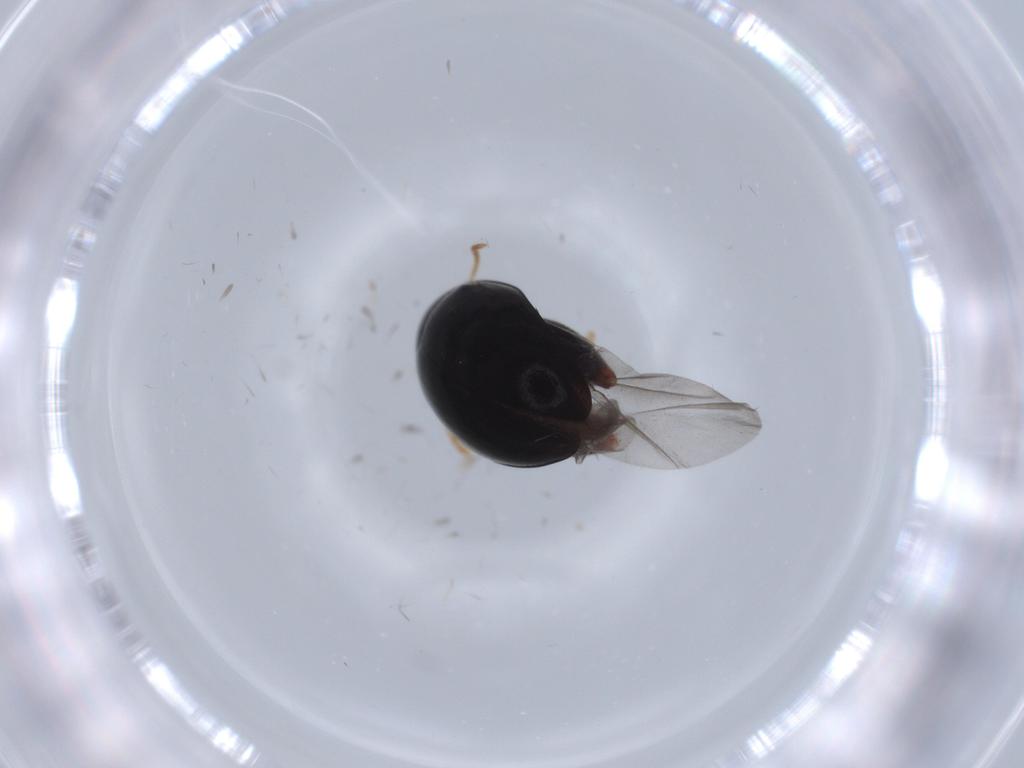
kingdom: Animalia
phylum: Arthropoda
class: Insecta
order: Coleoptera
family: Chrysomelidae
